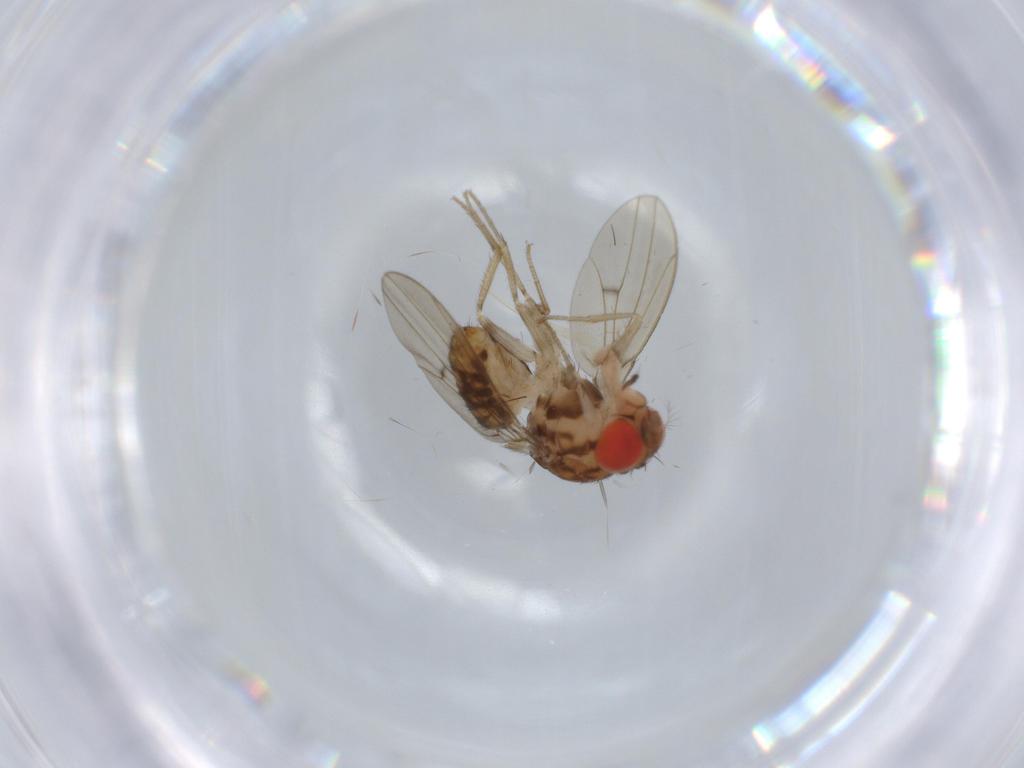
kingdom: Animalia
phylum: Arthropoda
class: Insecta
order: Diptera
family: Drosophilidae
